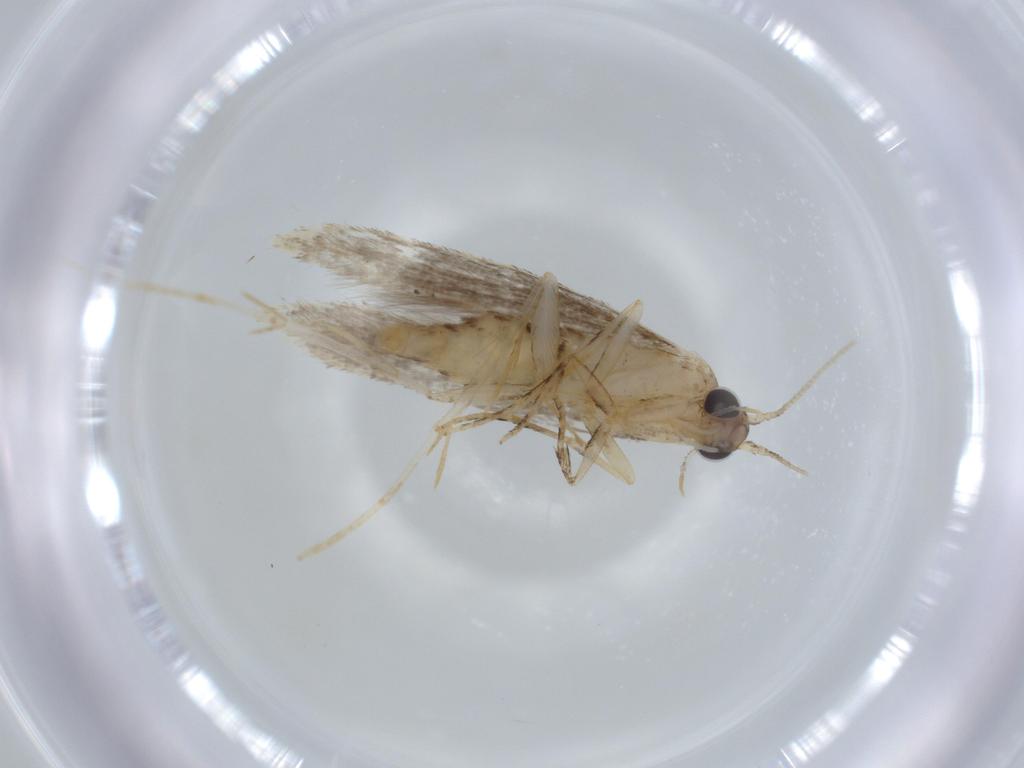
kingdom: Animalia
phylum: Arthropoda
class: Insecta
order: Lepidoptera
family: Tineidae
